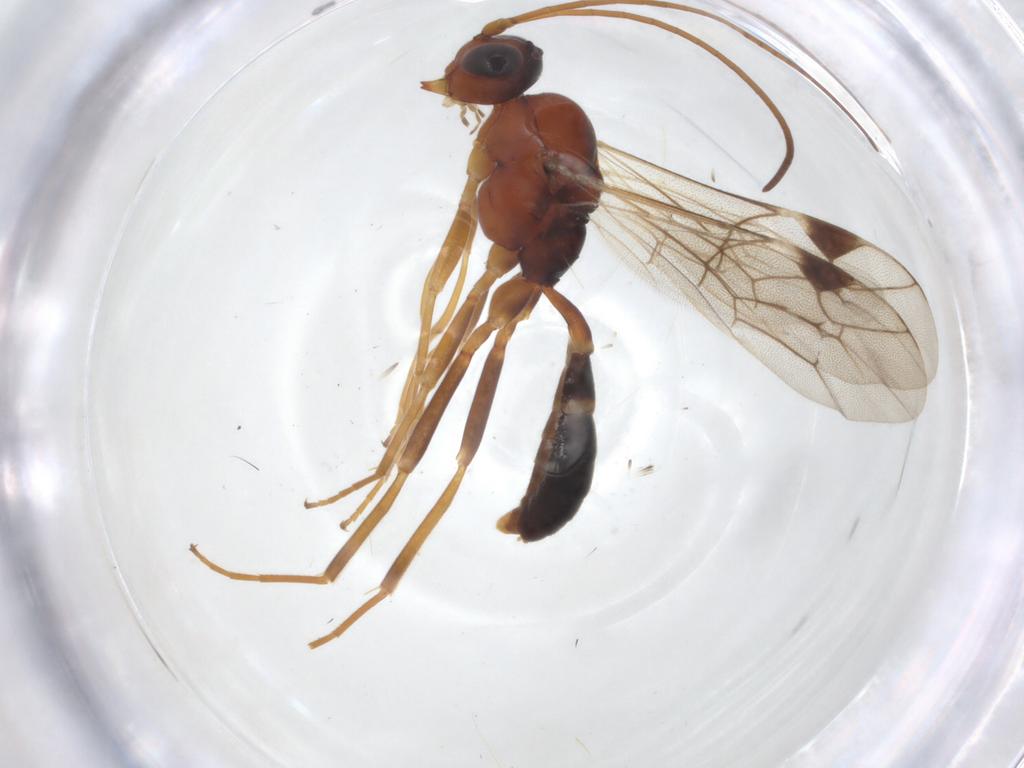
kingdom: Animalia
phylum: Arthropoda
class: Insecta
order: Hymenoptera
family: Ichneumonidae
